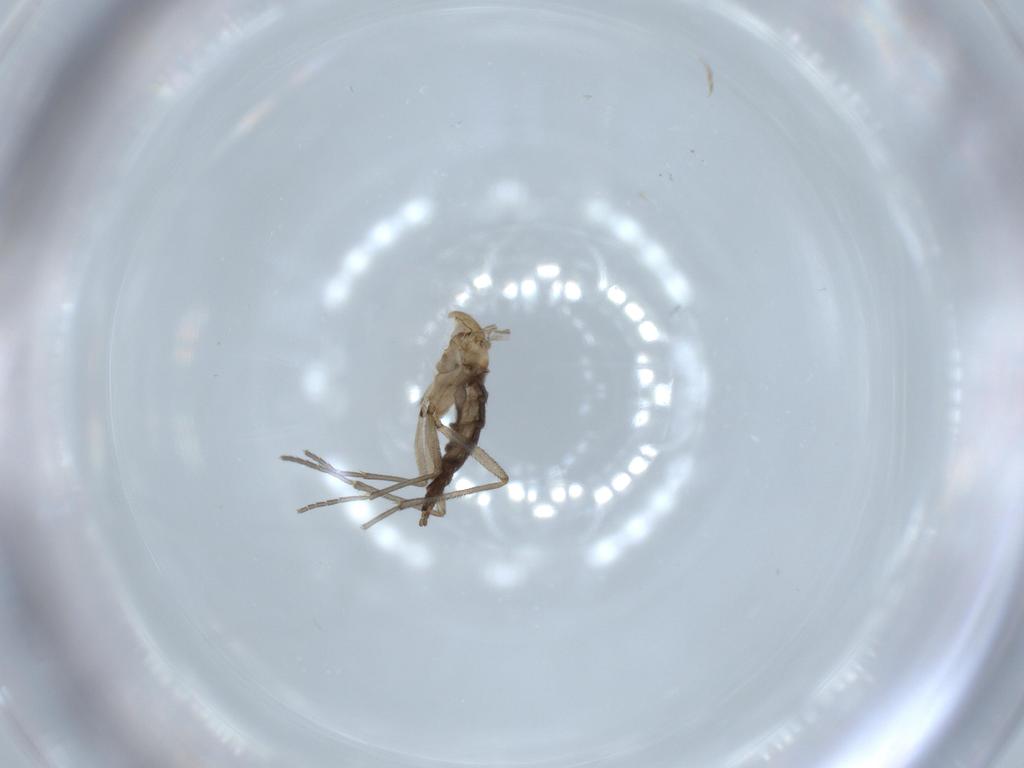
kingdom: Animalia
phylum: Arthropoda
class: Insecta
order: Diptera
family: Sciaridae
